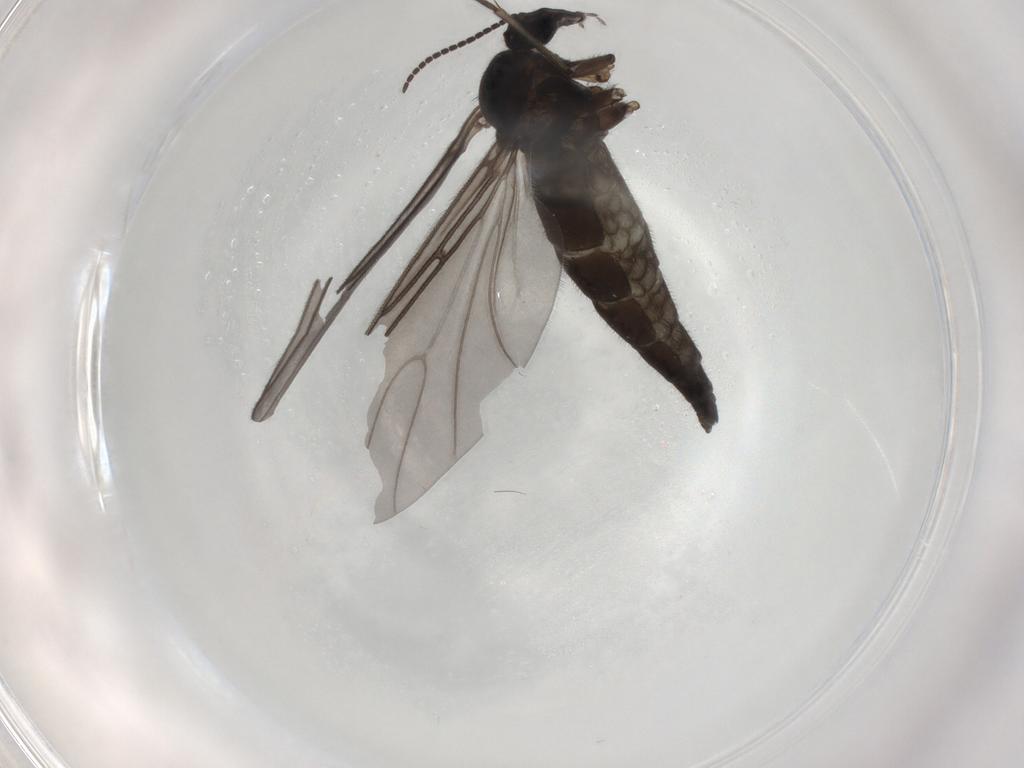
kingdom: Animalia
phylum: Arthropoda
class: Insecta
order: Diptera
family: Sciaridae
